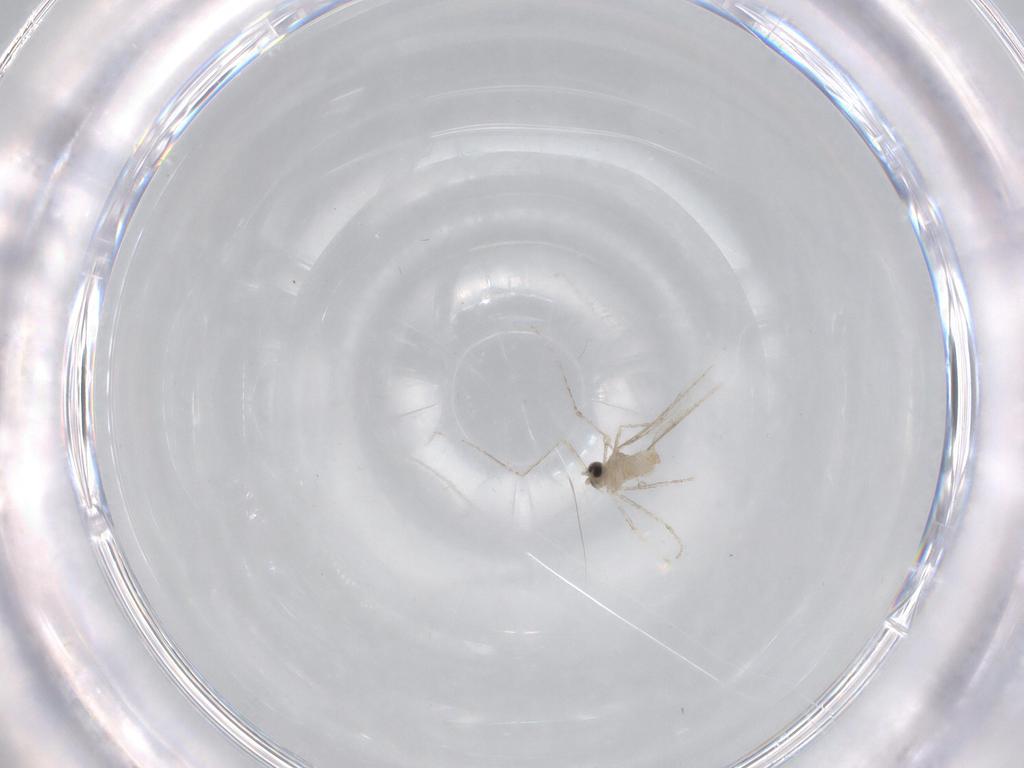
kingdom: Animalia
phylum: Arthropoda
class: Insecta
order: Diptera
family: Cecidomyiidae
